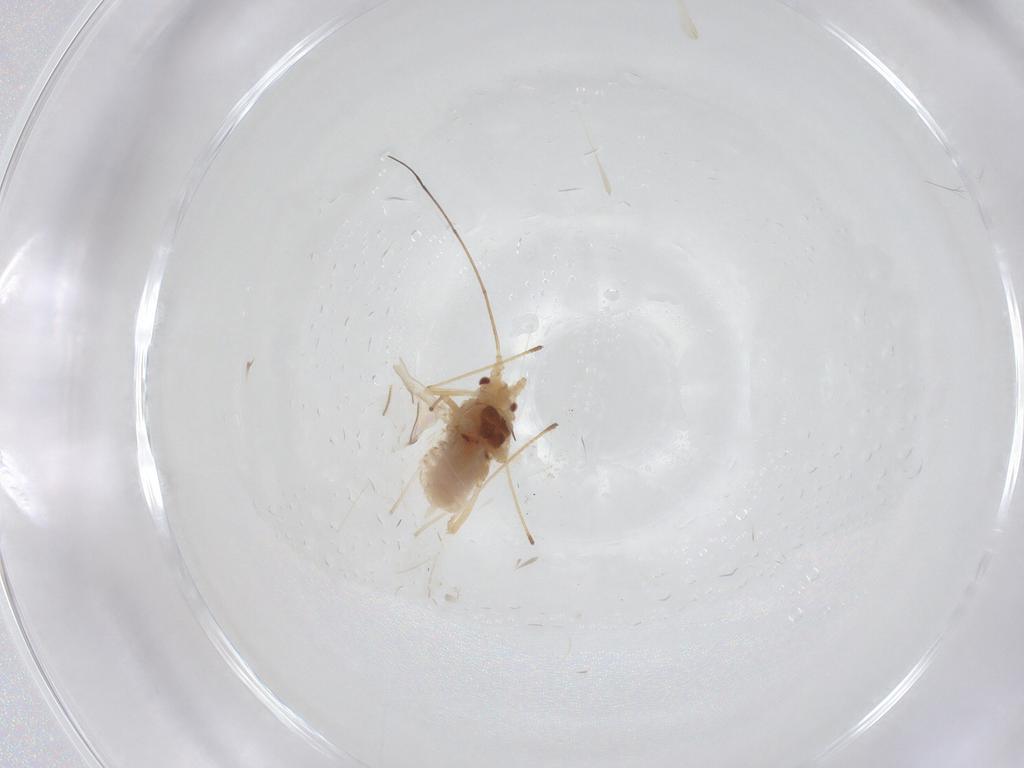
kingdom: Animalia
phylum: Arthropoda
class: Insecta
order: Hemiptera
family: Aphididae
